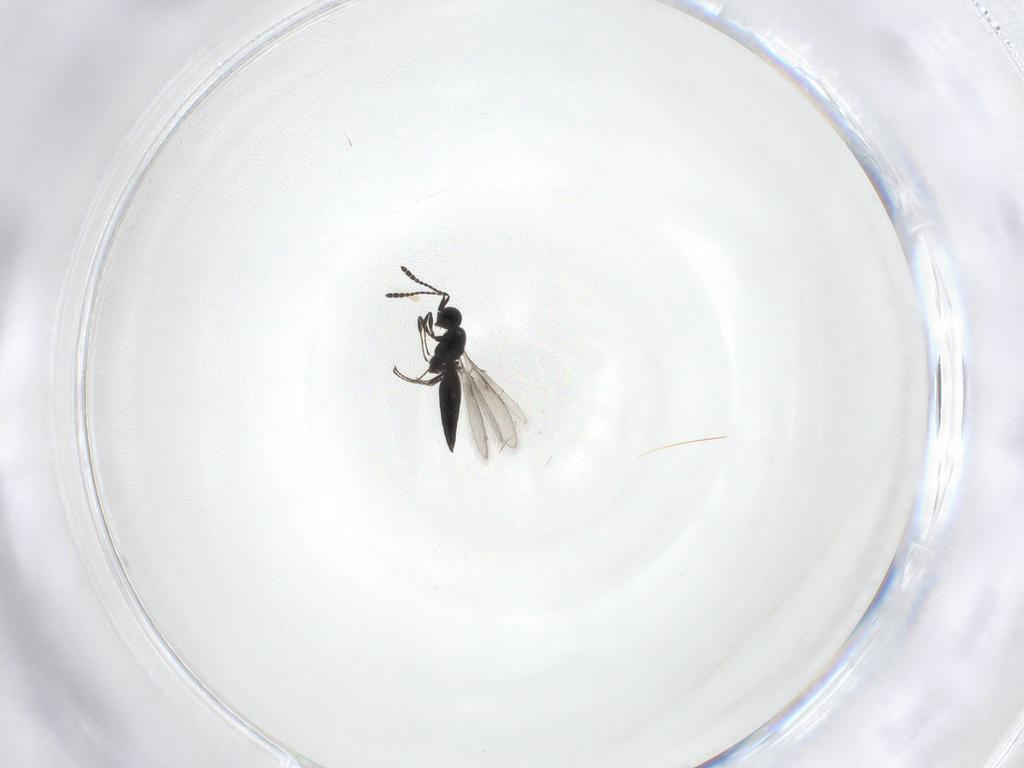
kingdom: Animalia
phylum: Arthropoda
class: Insecta
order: Hymenoptera
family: Scelionidae
